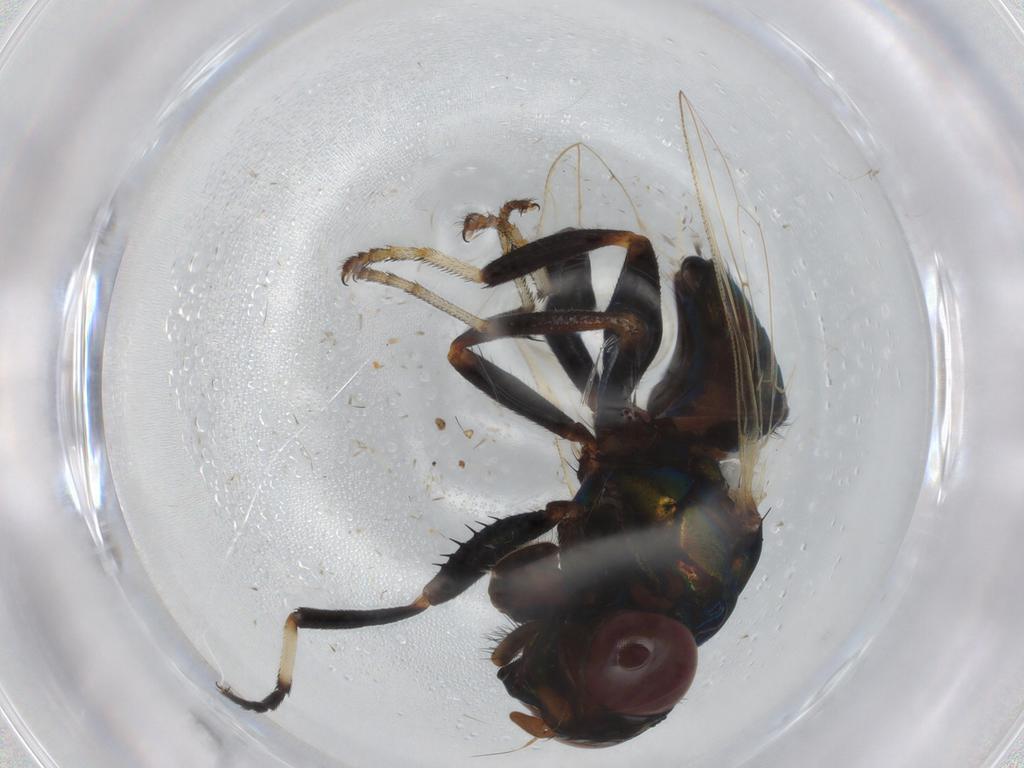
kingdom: Animalia
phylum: Arthropoda
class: Insecta
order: Diptera
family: Ulidiidae
